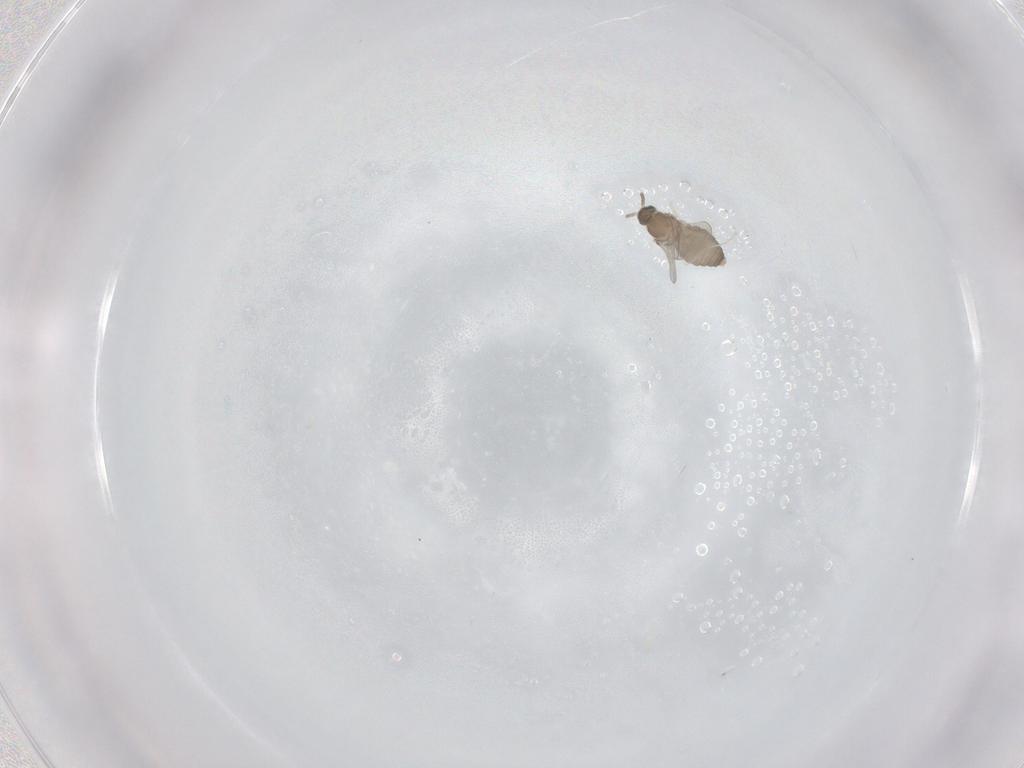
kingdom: Animalia
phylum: Arthropoda
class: Insecta
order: Diptera
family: Cecidomyiidae
